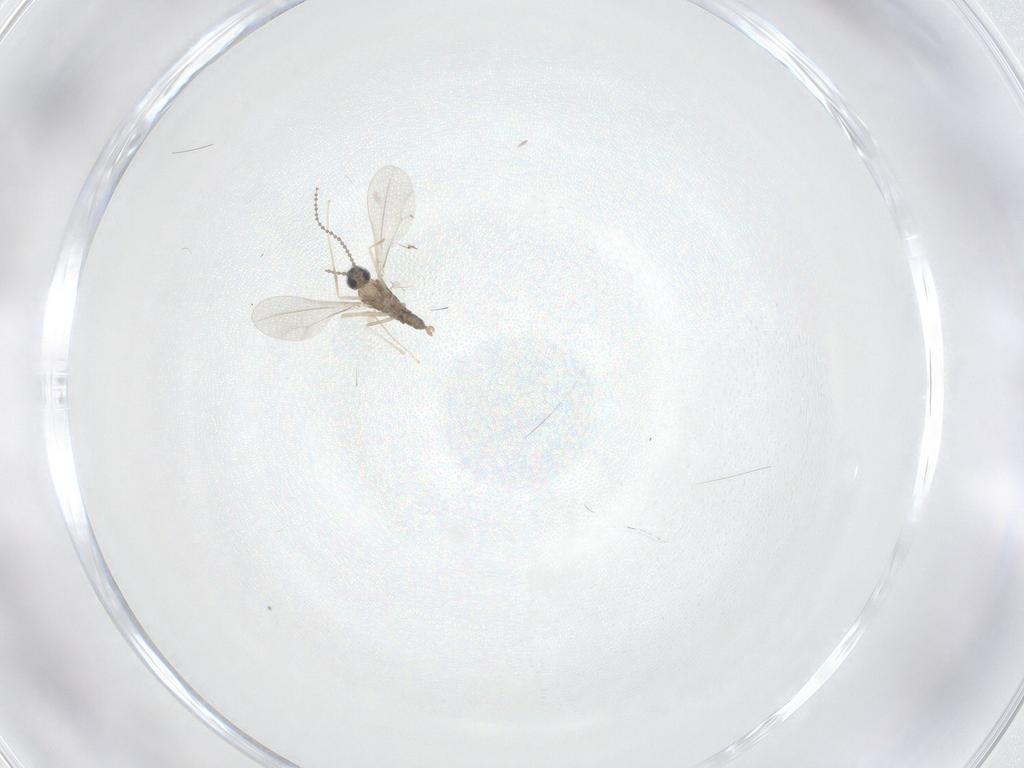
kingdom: Animalia
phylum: Arthropoda
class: Insecta
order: Diptera
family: Cecidomyiidae
